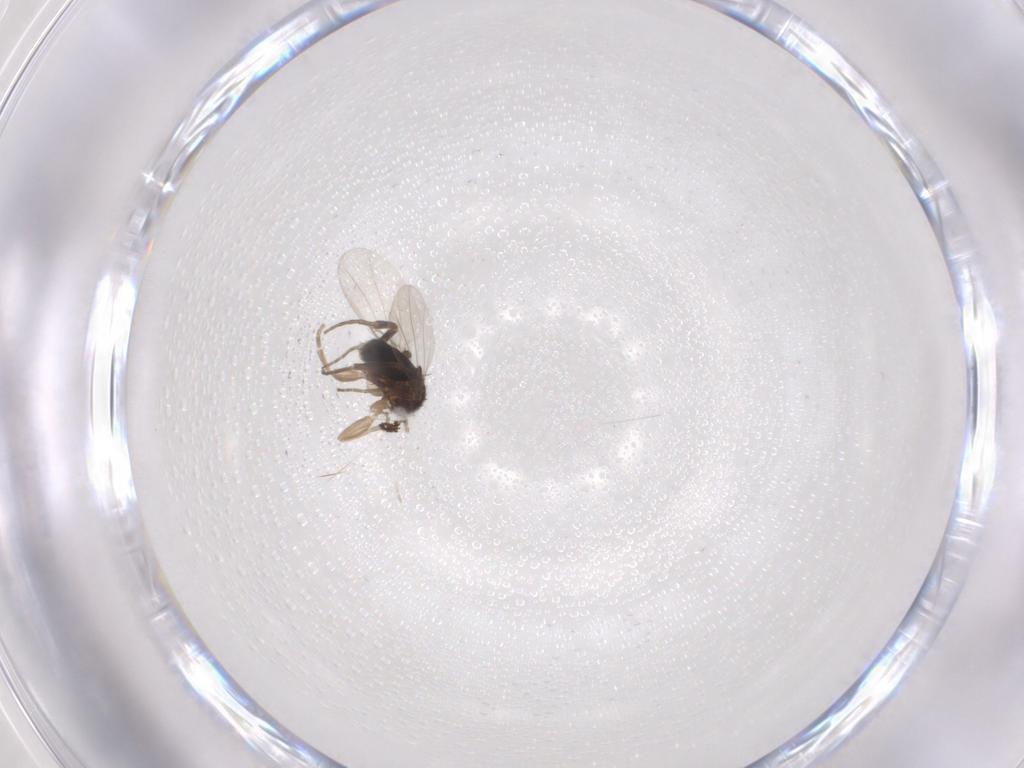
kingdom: Animalia
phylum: Arthropoda
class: Insecta
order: Diptera
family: Phoridae
